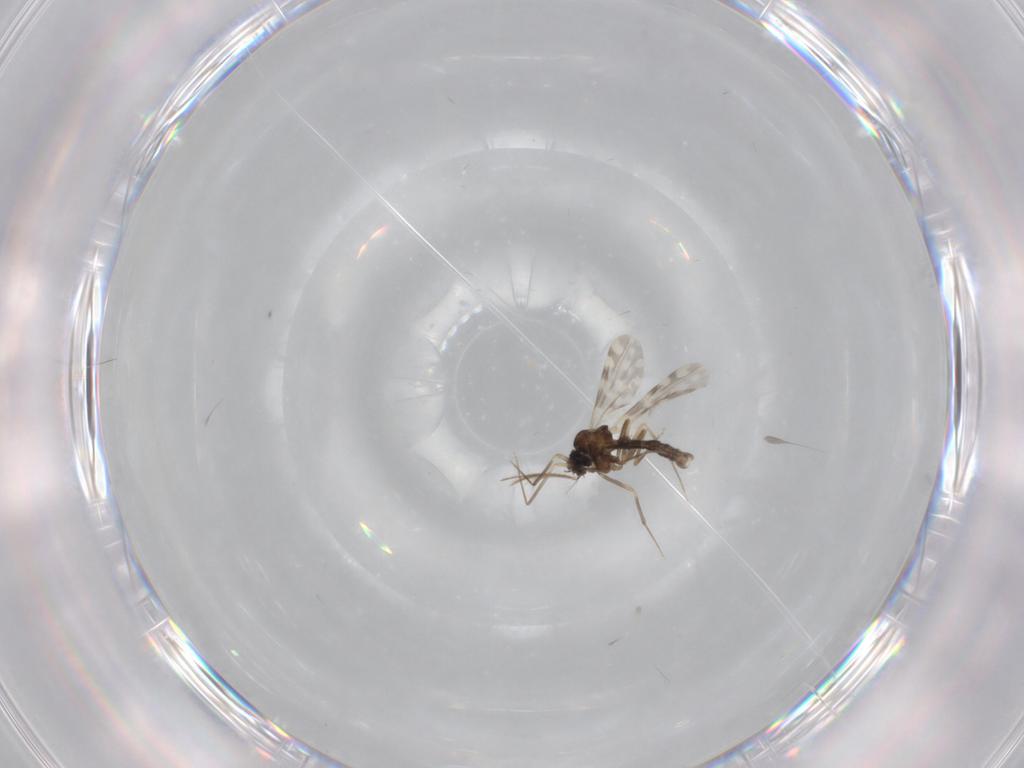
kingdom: Animalia
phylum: Arthropoda
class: Insecta
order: Diptera
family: Ceratopogonidae
